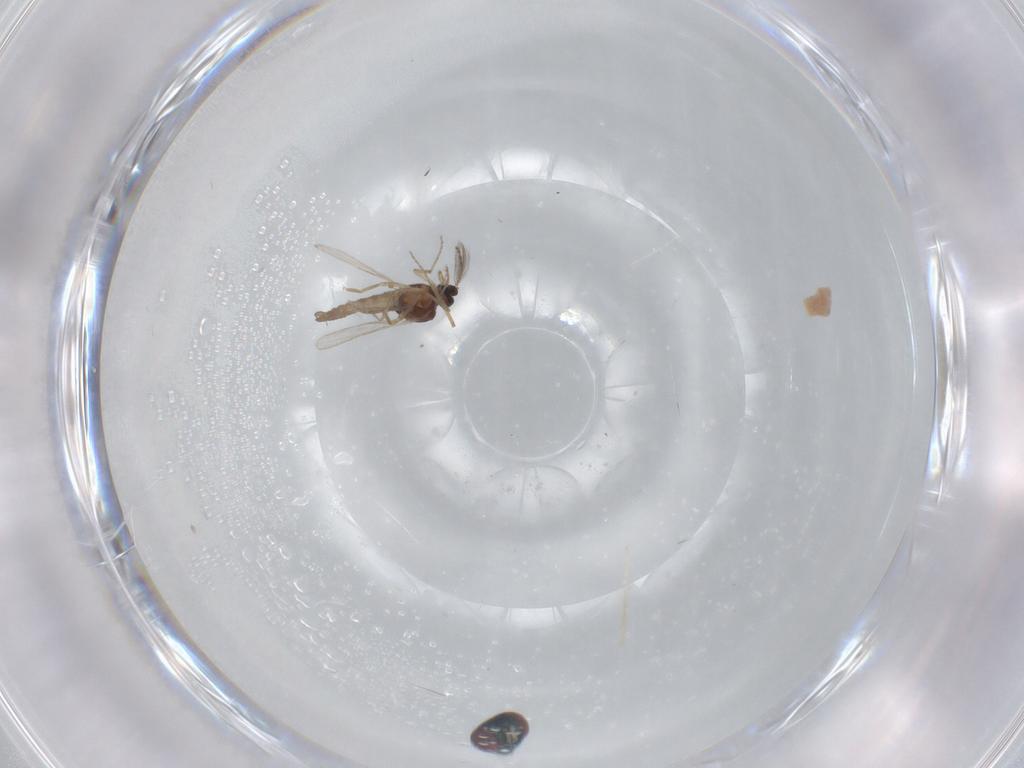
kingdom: Animalia
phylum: Arthropoda
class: Insecta
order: Diptera
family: Limoniidae
